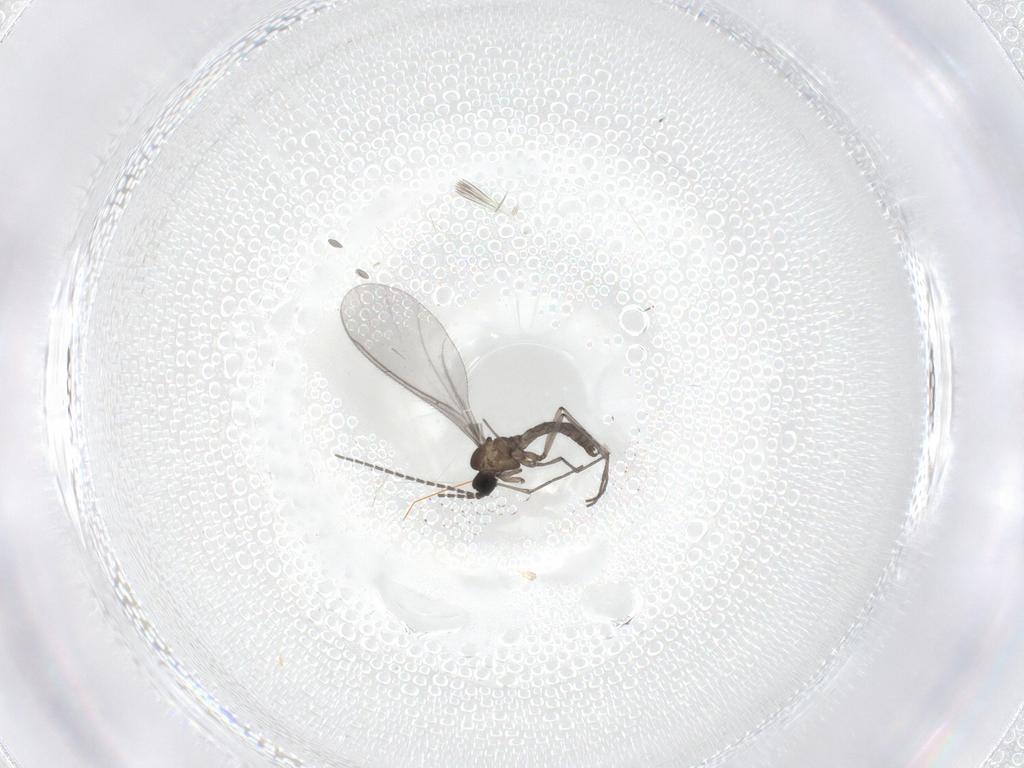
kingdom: Animalia
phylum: Arthropoda
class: Insecta
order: Diptera
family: Sciaridae
